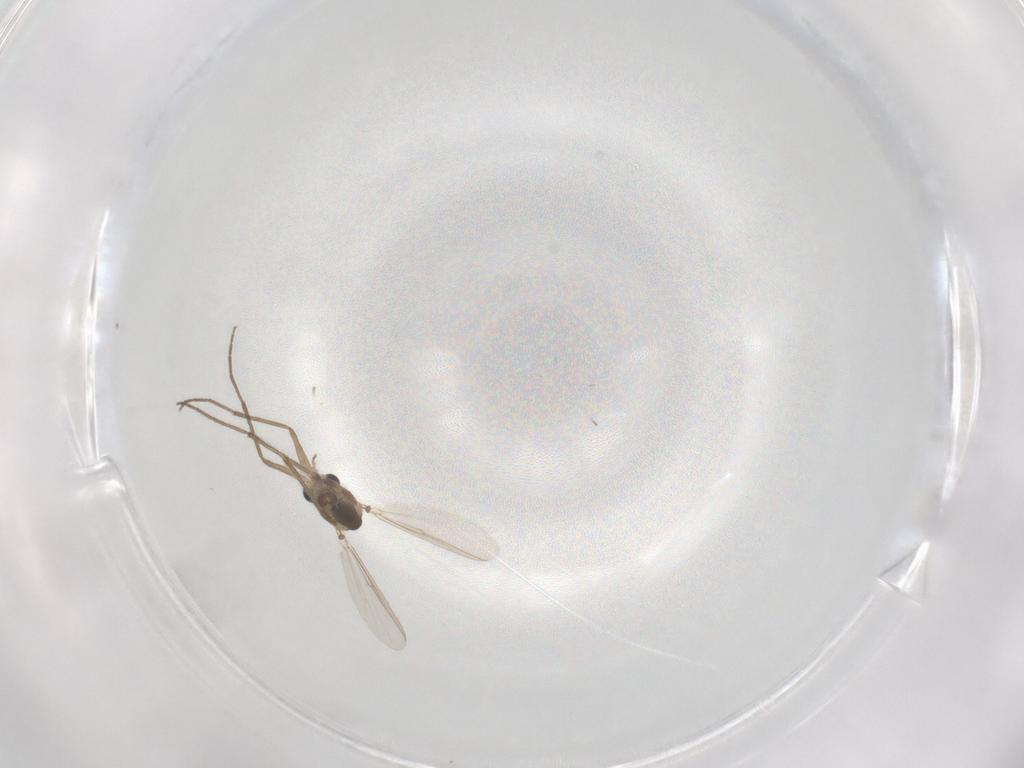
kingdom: Animalia
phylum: Arthropoda
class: Insecta
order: Diptera
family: Chironomidae
